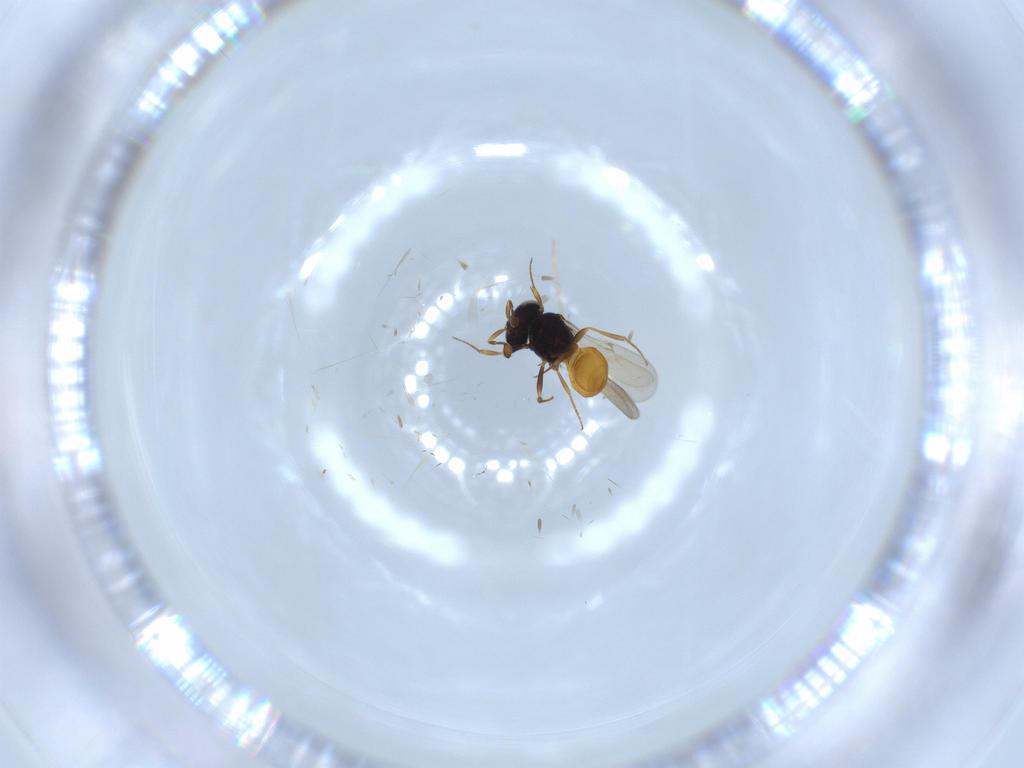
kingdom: Animalia
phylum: Arthropoda
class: Insecta
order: Hymenoptera
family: Scelionidae
